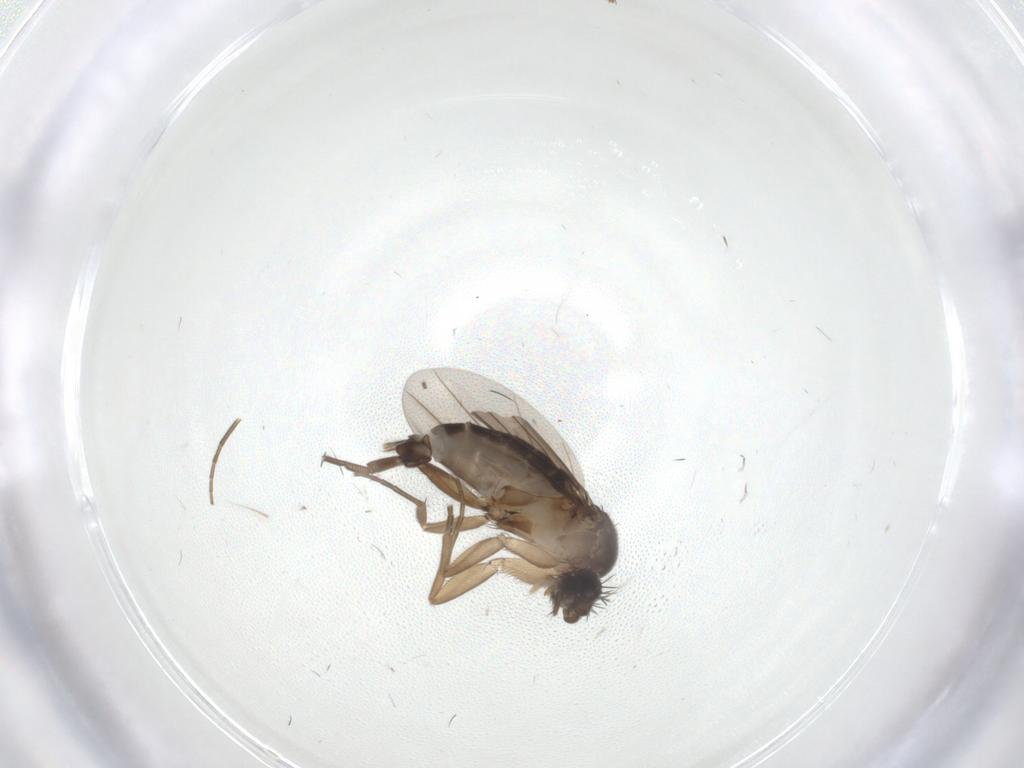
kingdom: Animalia
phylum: Arthropoda
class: Insecta
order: Diptera
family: Phoridae
